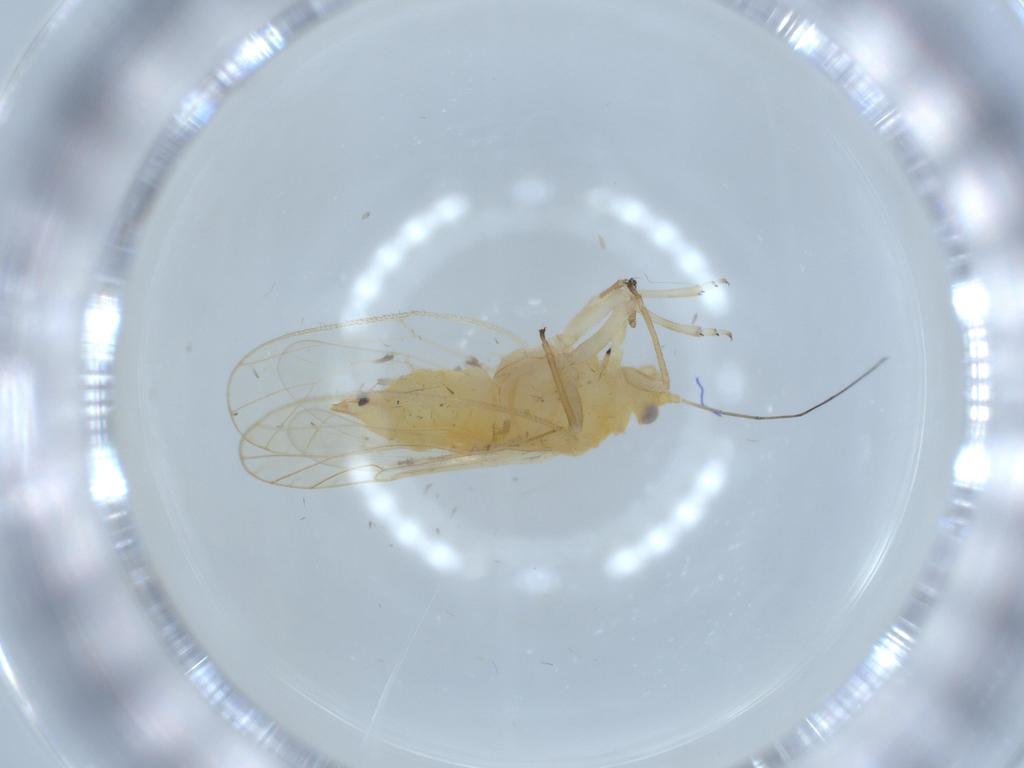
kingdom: Animalia
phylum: Arthropoda
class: Insecta
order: Hemiptera
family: Psyllidae
